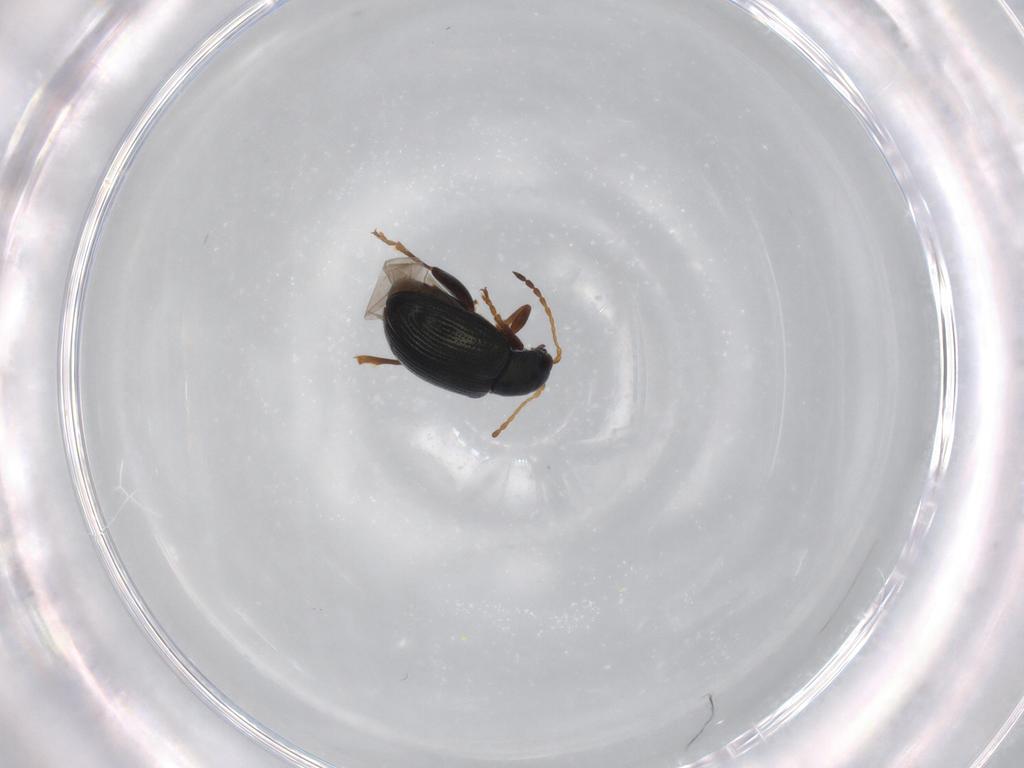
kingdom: Animalia
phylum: Arthropoda
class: Insecta
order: Coleoptera
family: Chrysomelidae
